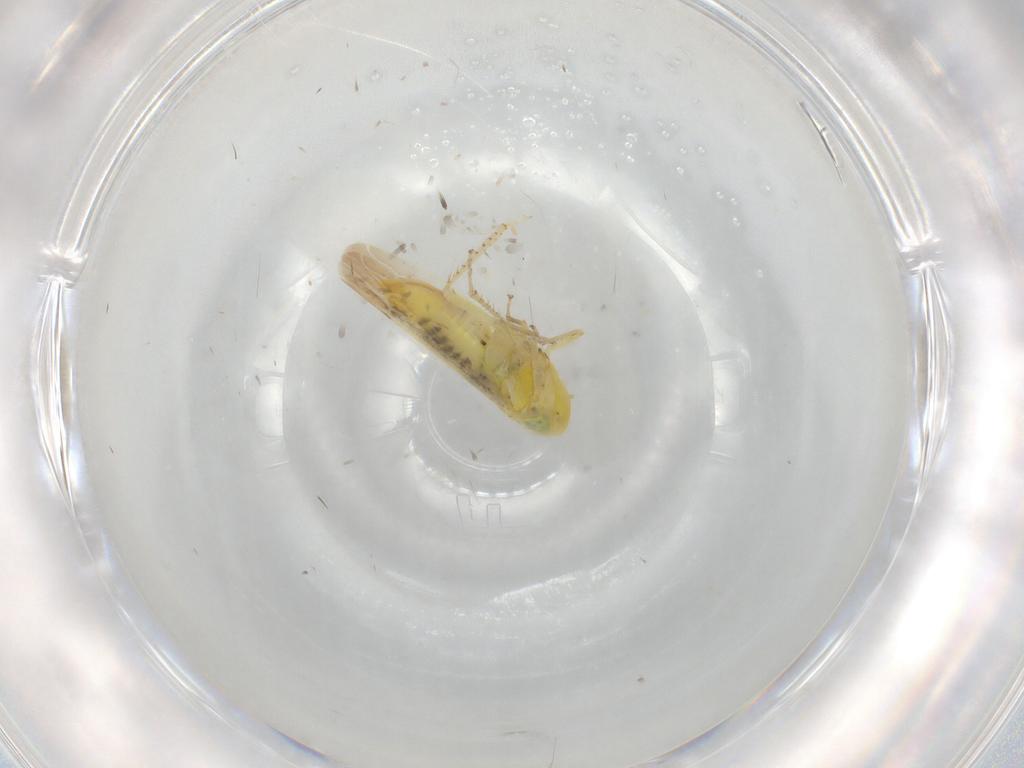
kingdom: Animalia
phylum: Arthropoda
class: Insecta
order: Hemiptera
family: Cicadellidae
